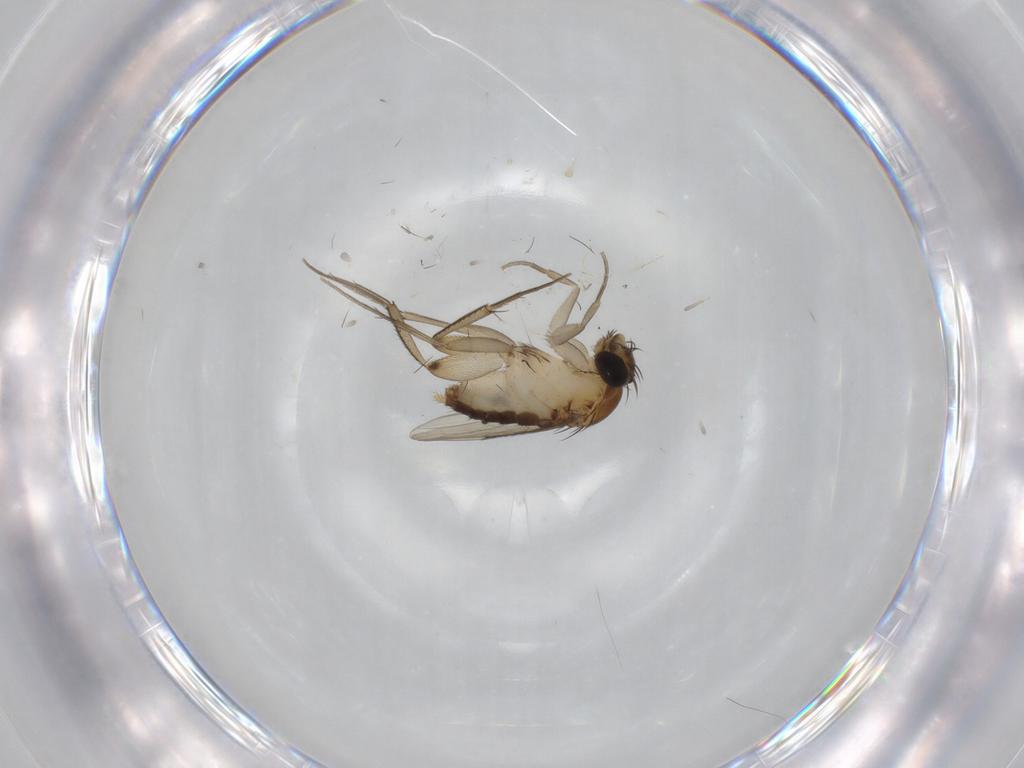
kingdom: Animalia
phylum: Arthropoda
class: Insecta
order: Diptera
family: Phoridae
